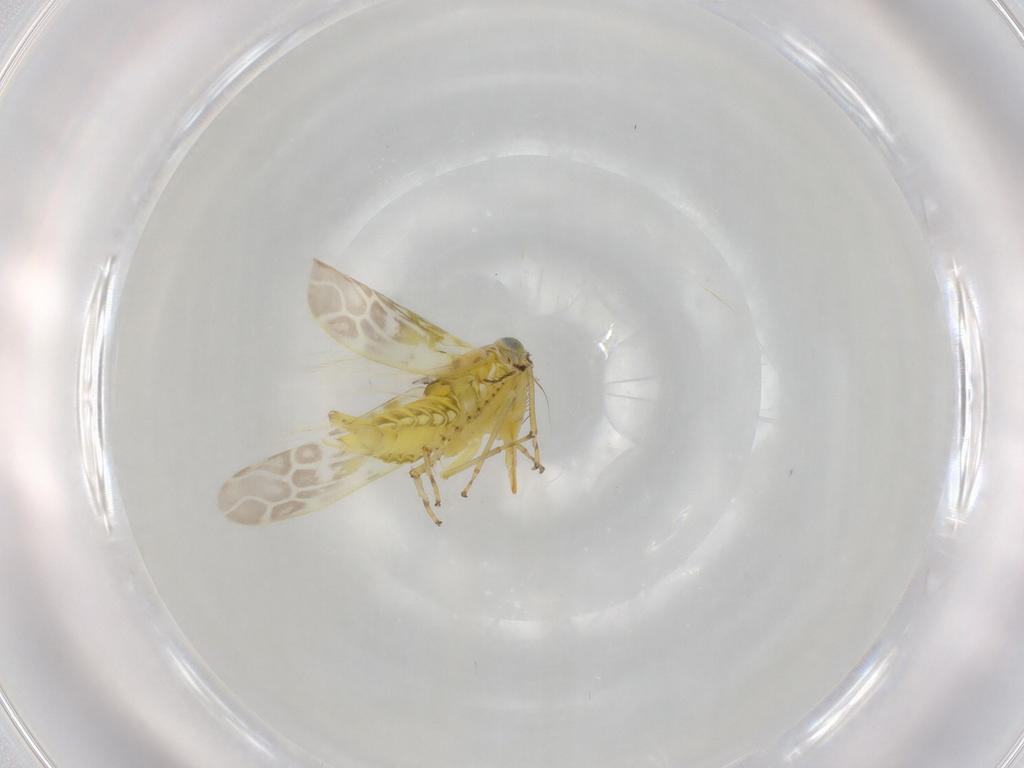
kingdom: Animalia
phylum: Arthropoda
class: Insecta
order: Hemiptera
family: Cicadellidae
